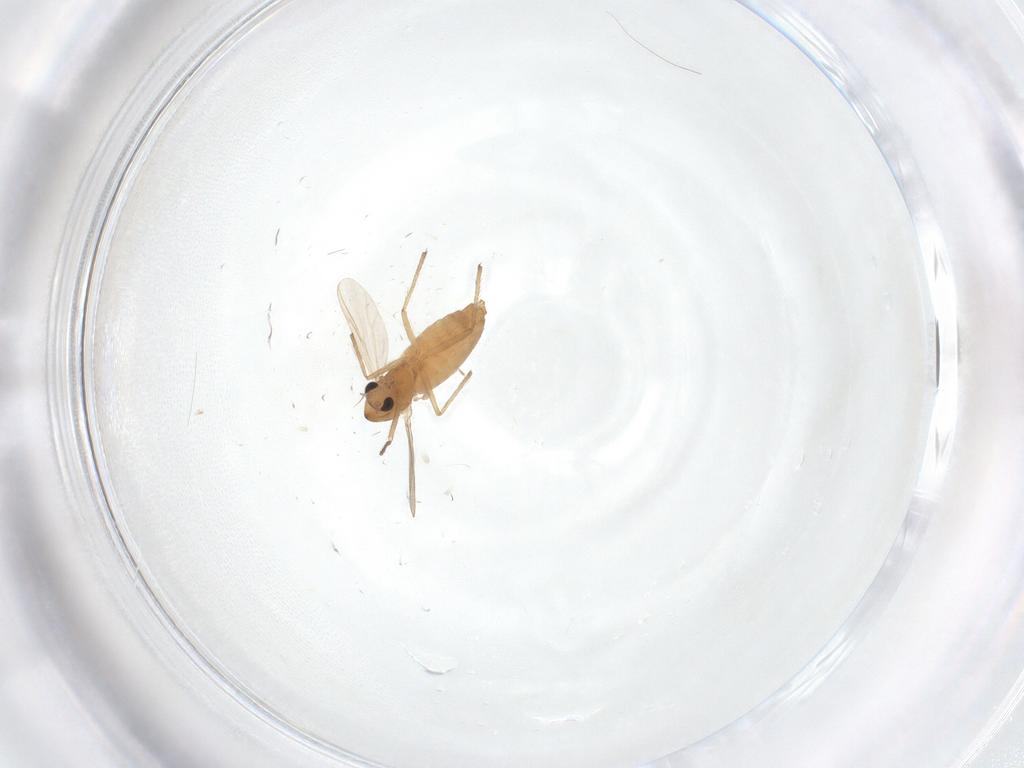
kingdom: Animalia
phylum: Arthropoda
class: Insecta
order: Diptera
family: Chironomidae
